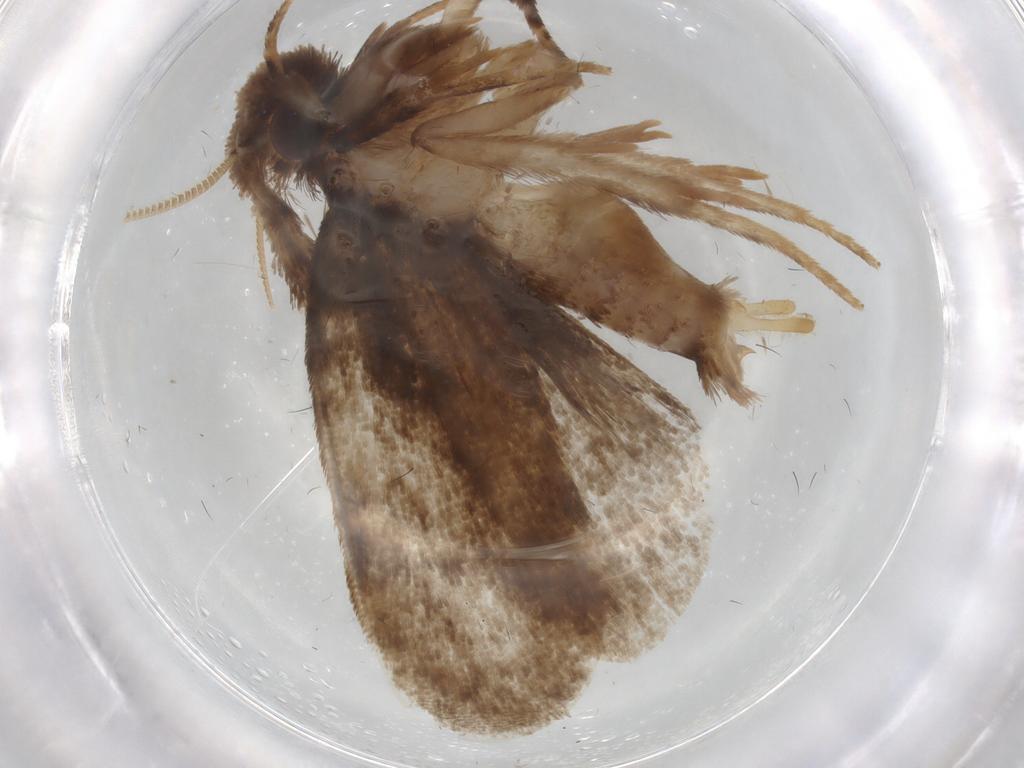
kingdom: Animalia
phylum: Arthropoda
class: Insecta
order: Lepidoptera
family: Tineidae
